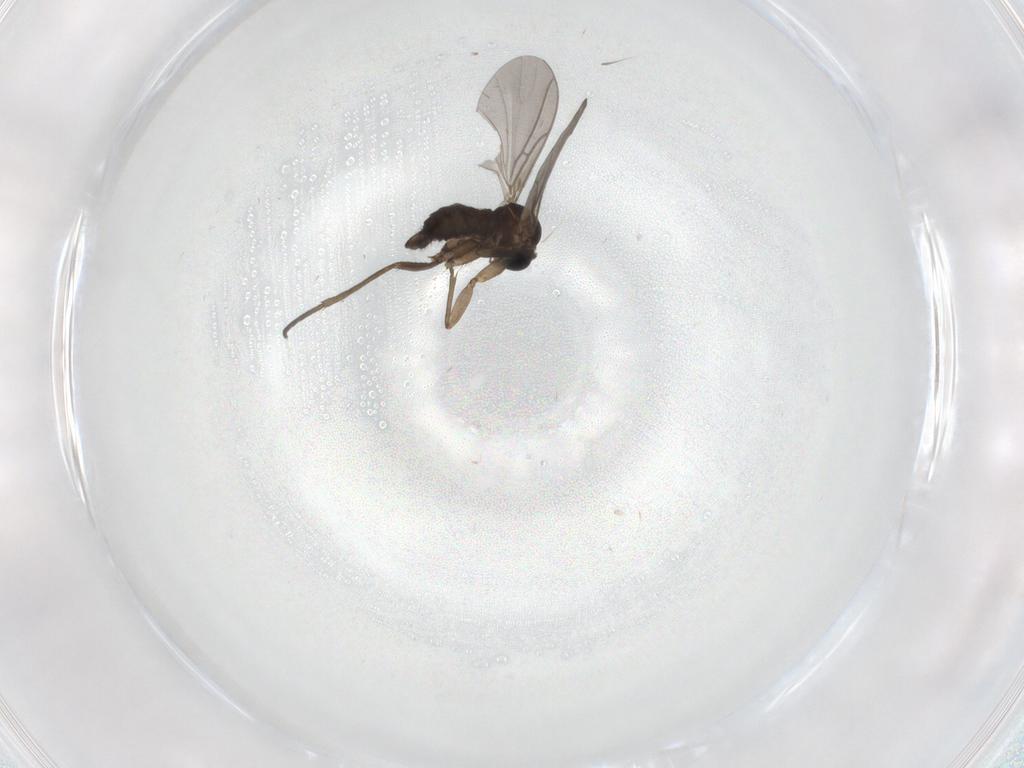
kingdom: Animalia
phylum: Arthropoda
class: Insecta
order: Diptera
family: Sciaridae
